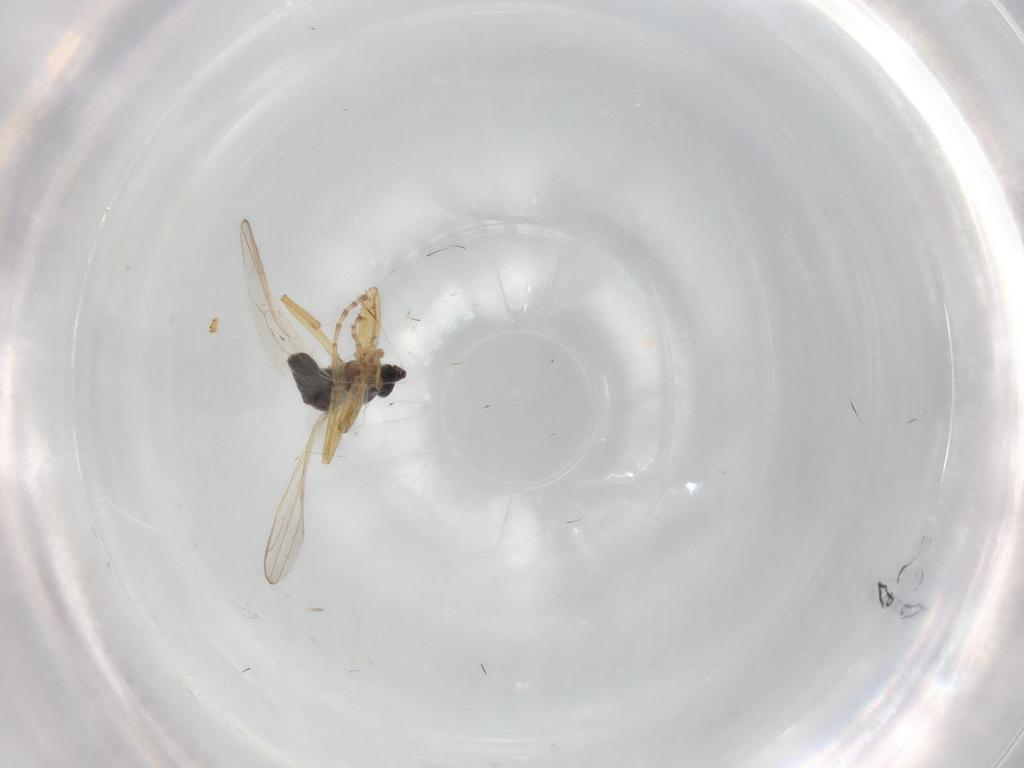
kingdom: Animalia
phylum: Arthropoda
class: Insecta
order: Diptera
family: Hybotidae
